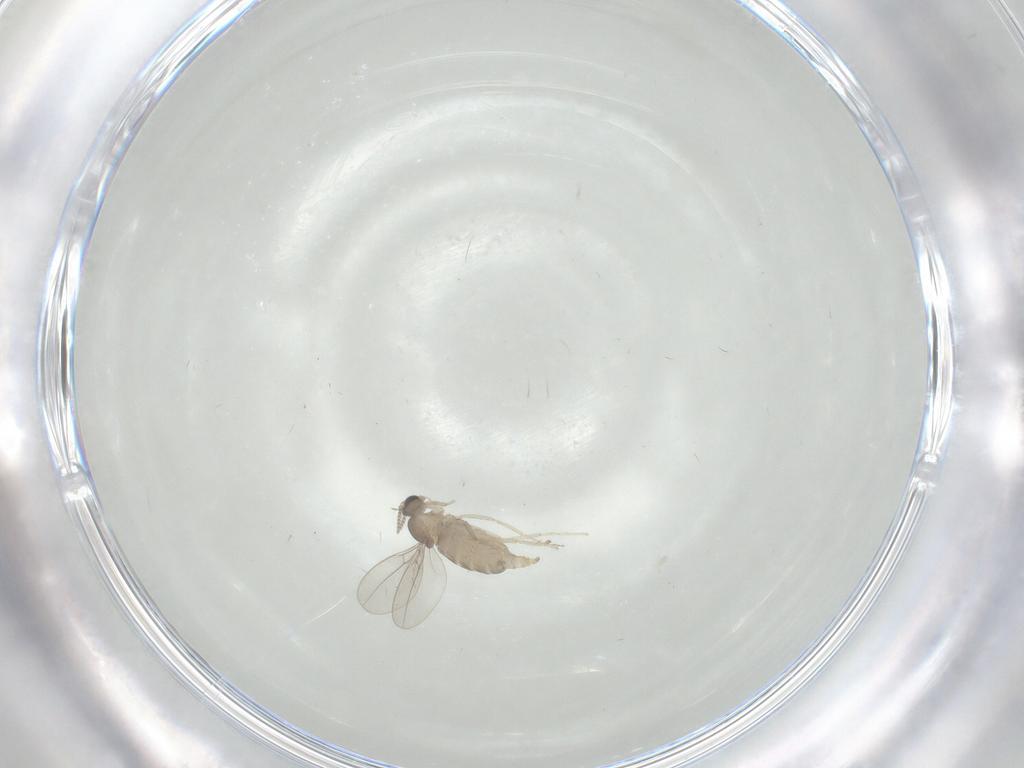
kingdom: Animalia
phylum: Arthropoda
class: Insecta
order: Diptera
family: Cecidomyiidae
